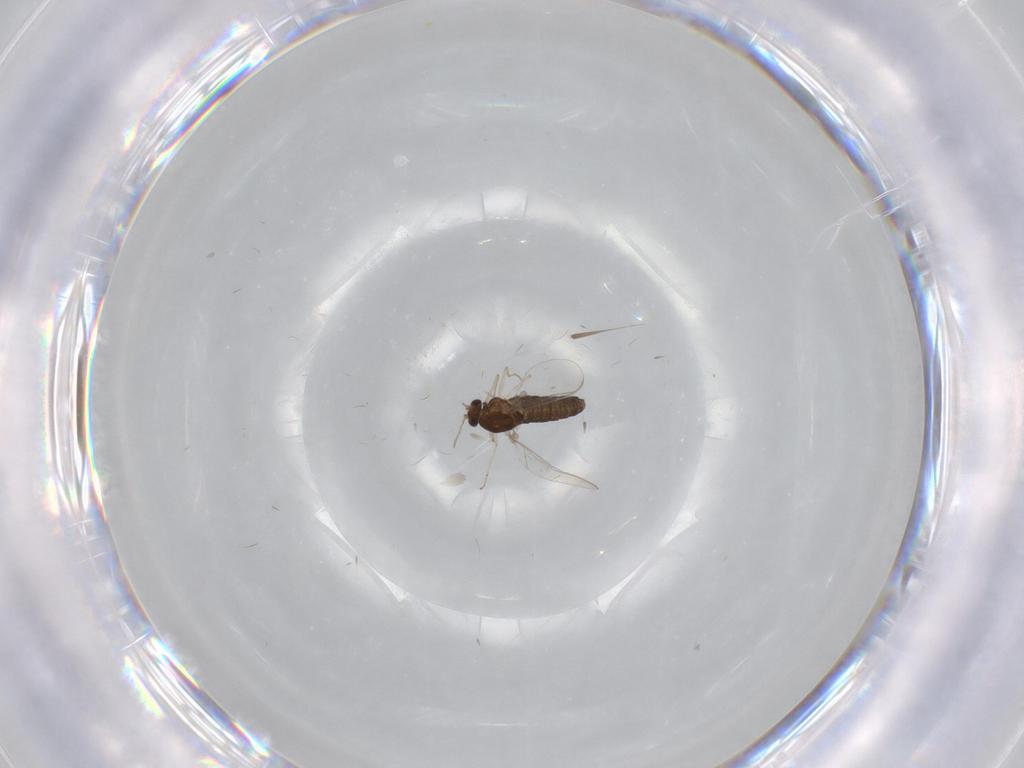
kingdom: Animalia
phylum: Arthropoda
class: Insecta
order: Diptera
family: Chironomidae
